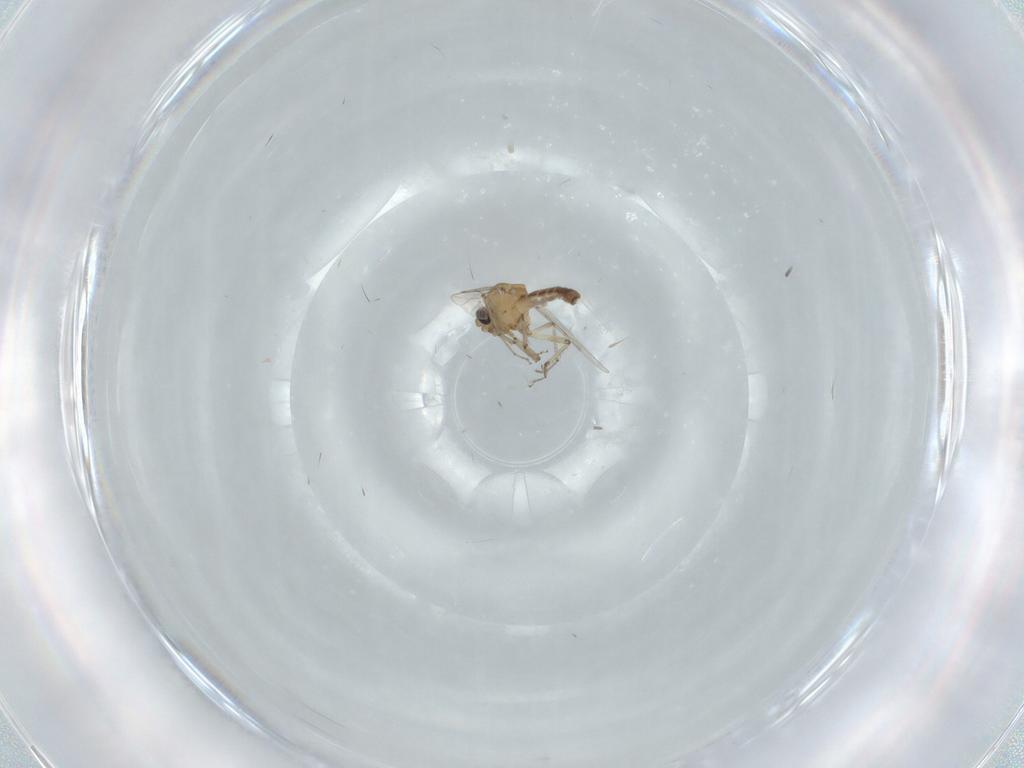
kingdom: Animalia
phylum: Arthropoda
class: Insecta
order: Diptera
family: Ceratopogonidae
